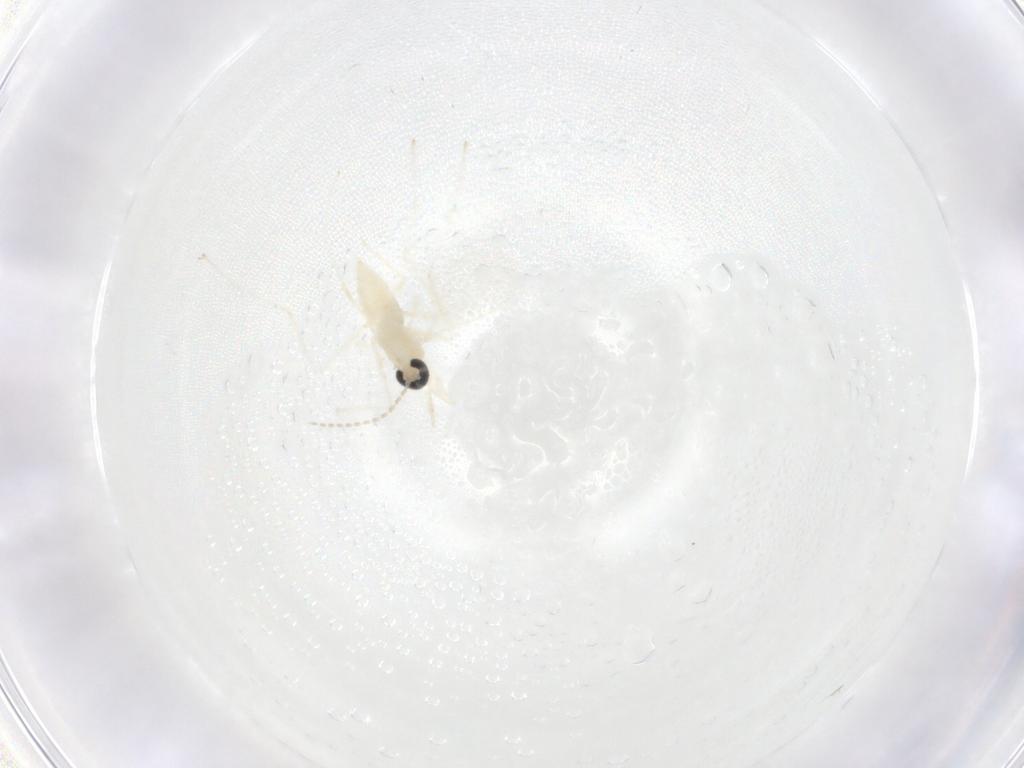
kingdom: Animalia
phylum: Arthropoda
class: Insecta
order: Diptera
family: Cecidomyiidae
